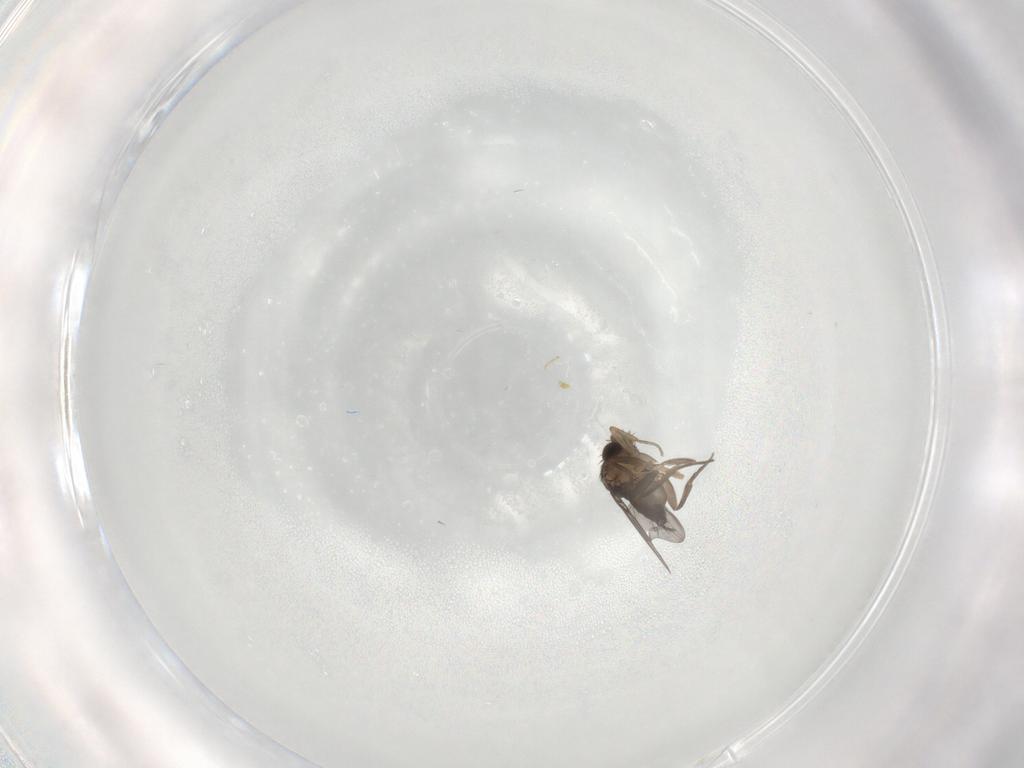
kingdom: Animalia
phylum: Arthropoda
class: Insecta
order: Diptera
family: Phoridae
